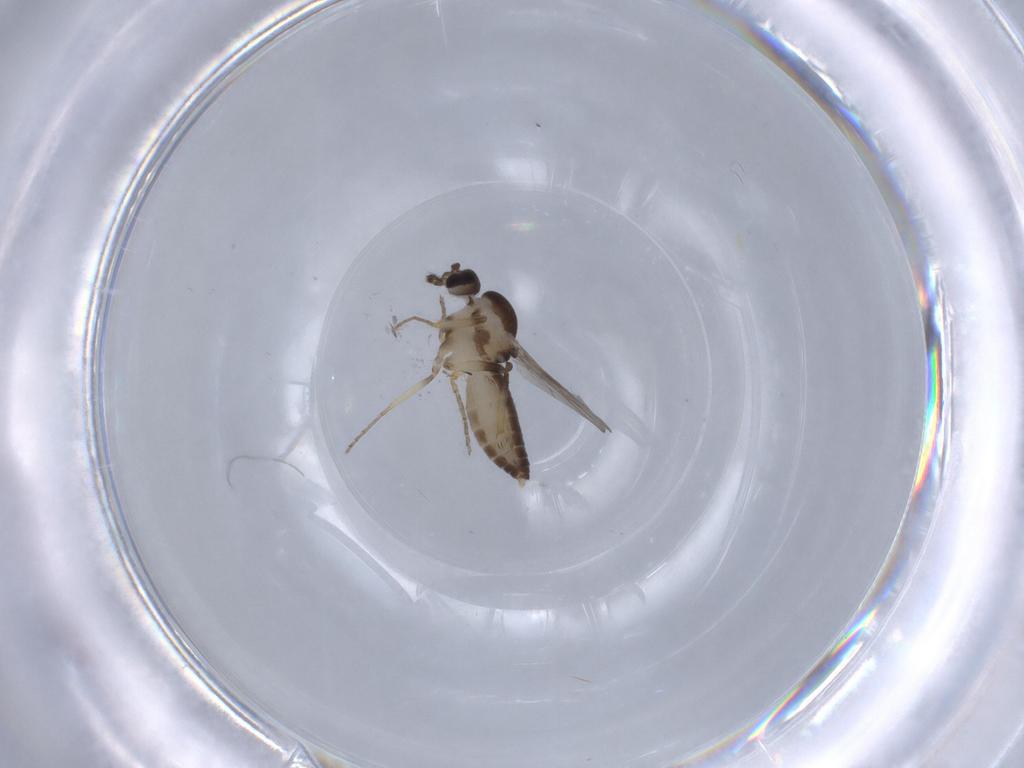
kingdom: Animalia
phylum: Arthropoda
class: Insecta
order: Diptera
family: Ceratopogonidae
